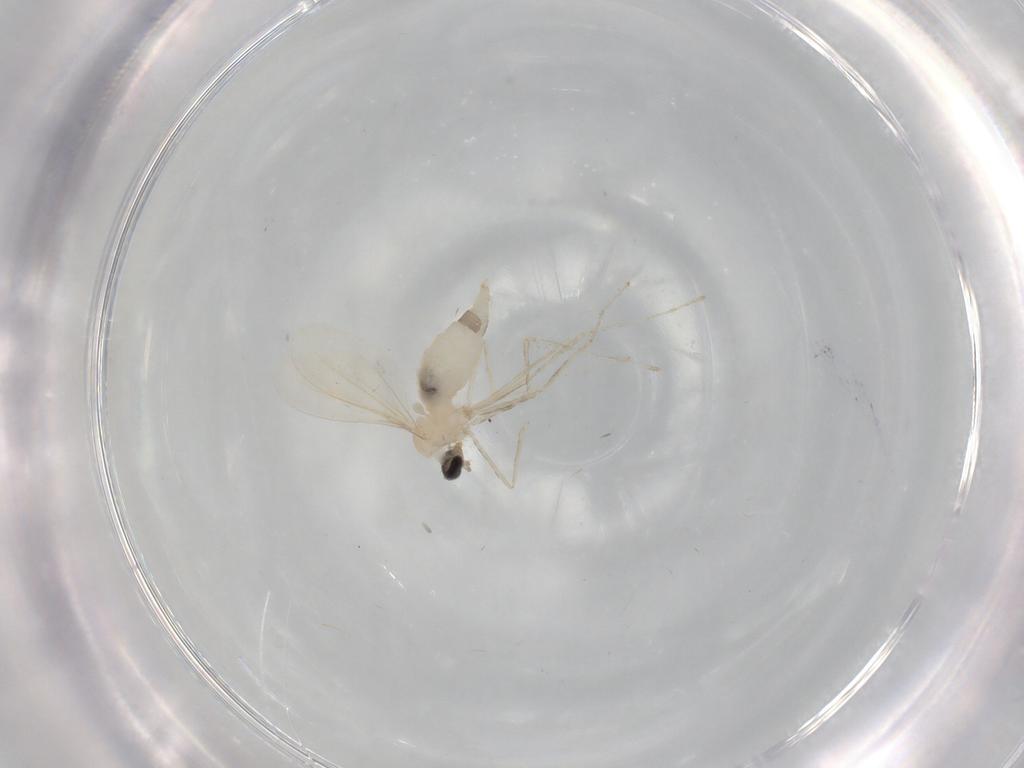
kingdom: Animalia
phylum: Arthropoda
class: Insecta
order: Diptera
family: Cecidomyiidae
